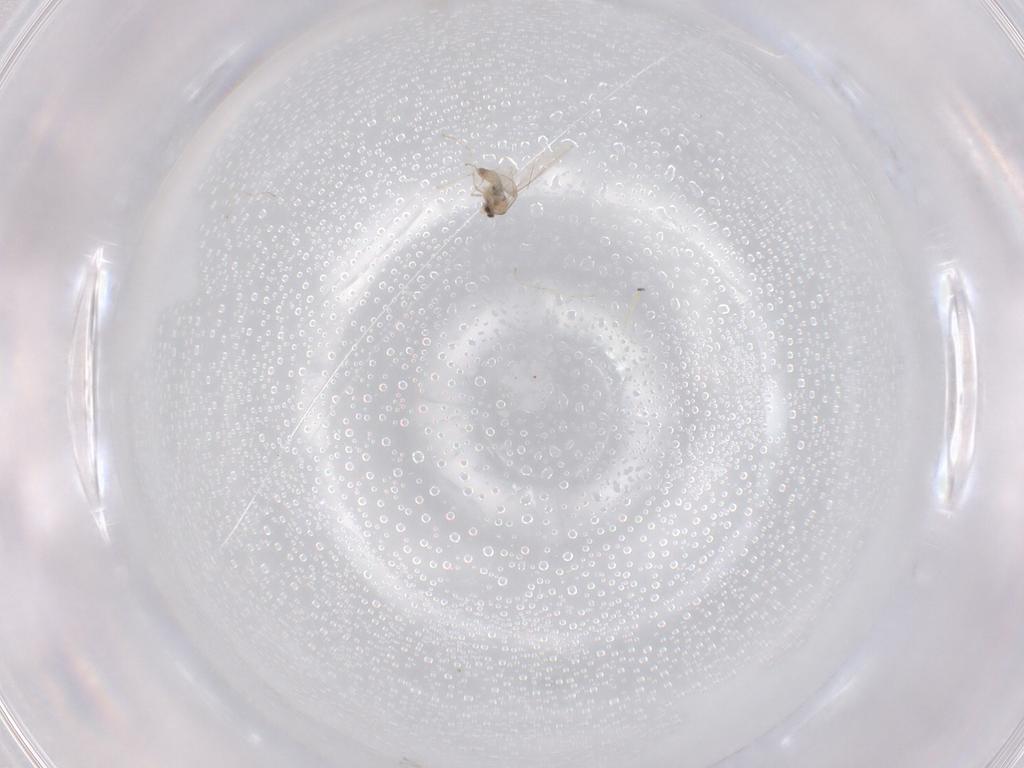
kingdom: Animalia
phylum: Arthropoda
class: Insecta
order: Diptera
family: Cecidomyiidae
